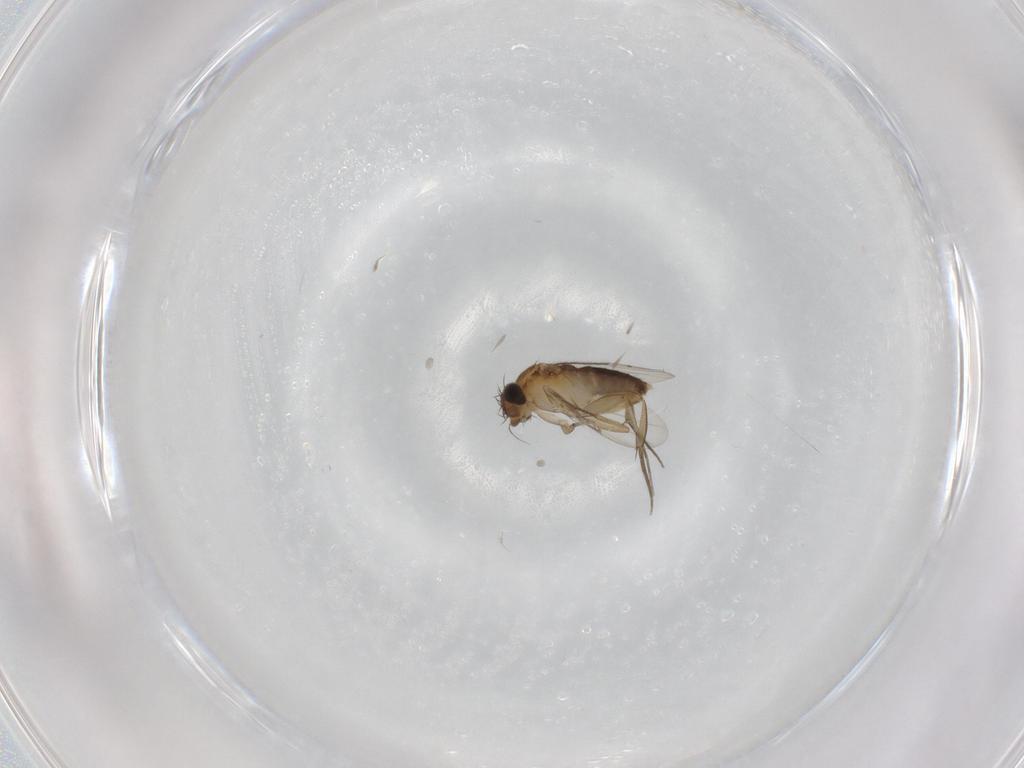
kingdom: Animalia
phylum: Arthropoda
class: Insecta
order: Diptera
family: Phoridae
